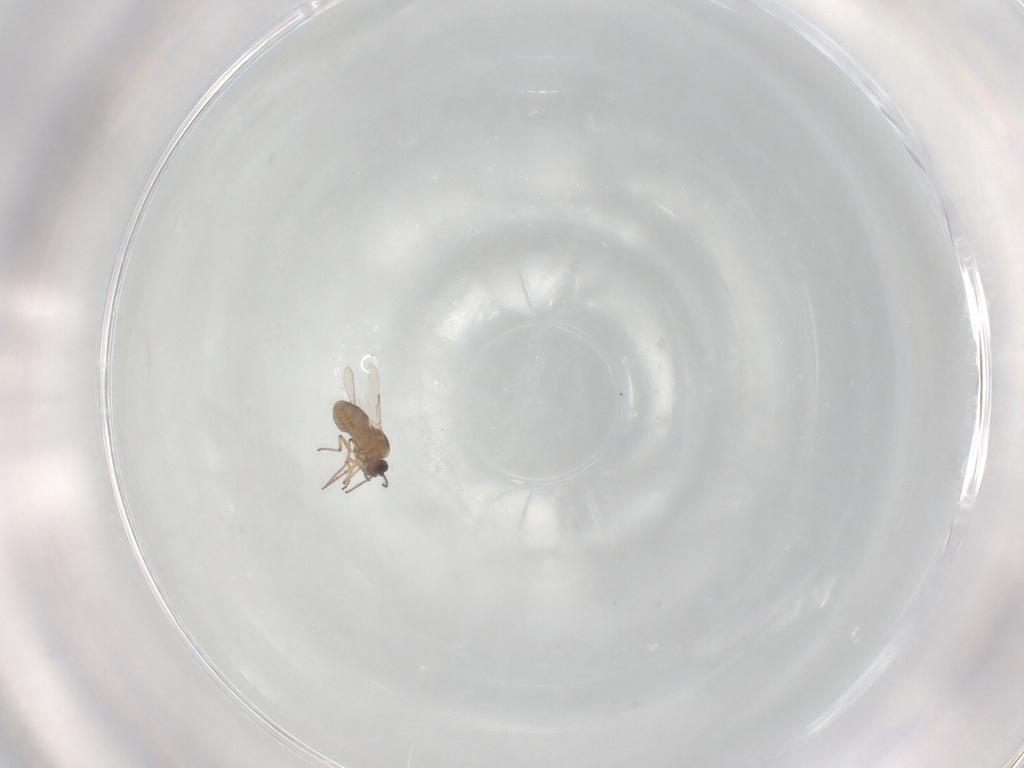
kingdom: Animalia
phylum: Arthropoda
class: Insecta
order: Diptera
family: Ceratopogonidae
